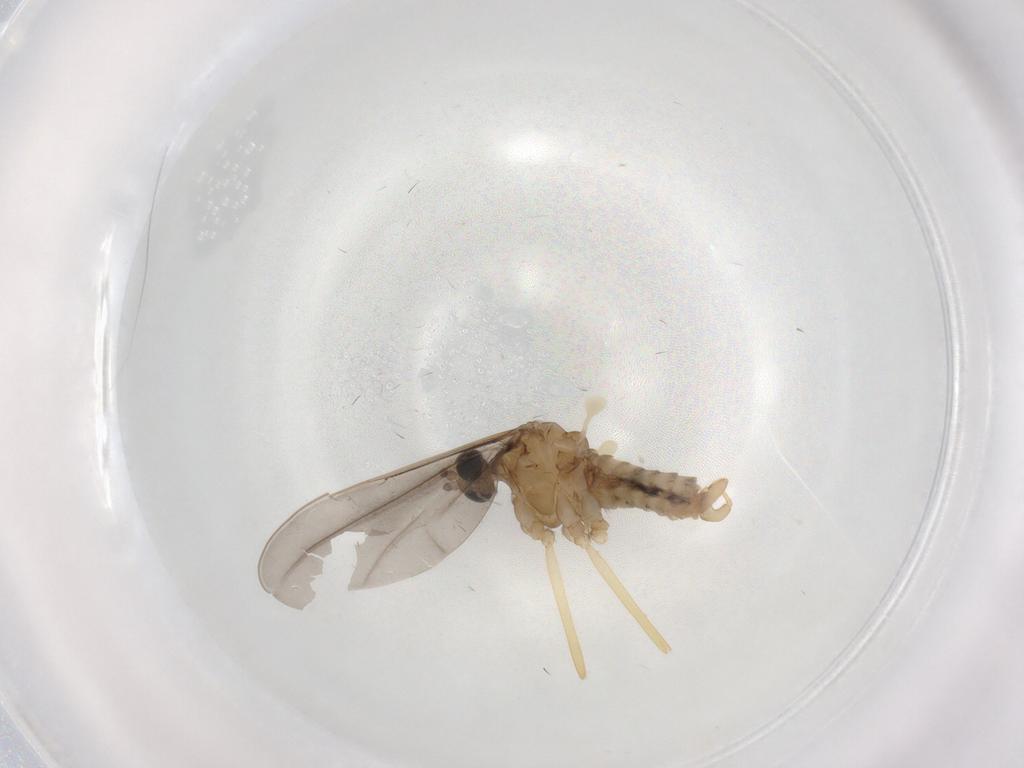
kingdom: Animalia
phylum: Arthropoda
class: Insecta
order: Diptera
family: Cecidomyiidae
